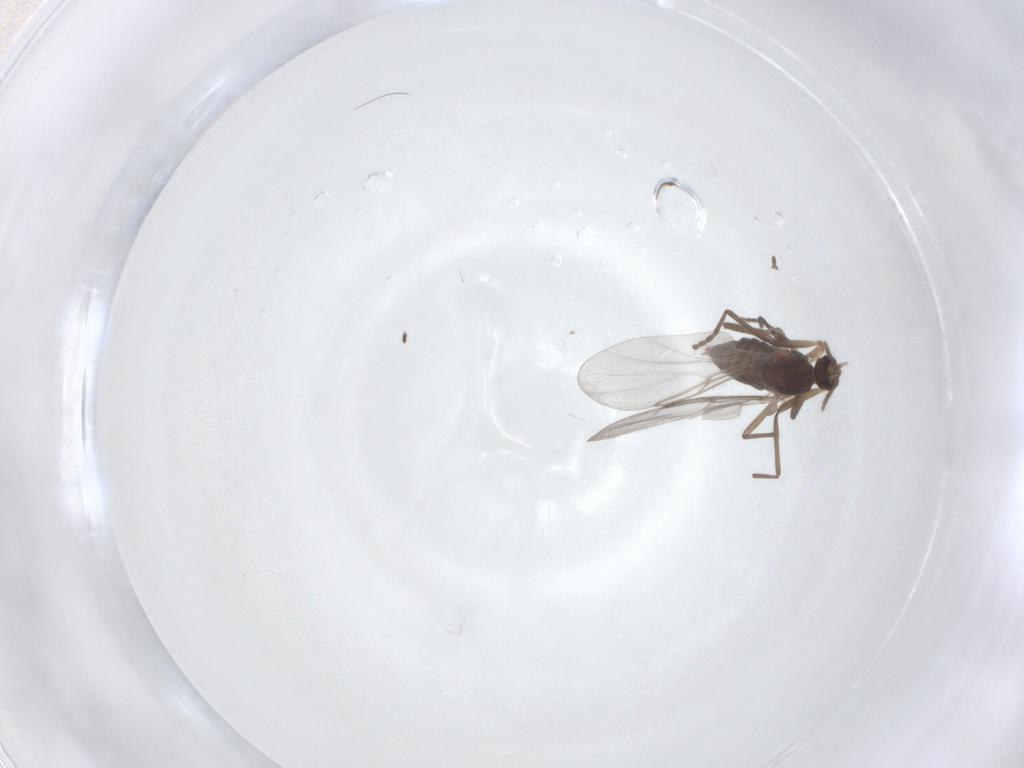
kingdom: Animalia
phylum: Arthropoda
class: Insecta
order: Diptera
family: Cecidomyiidae
